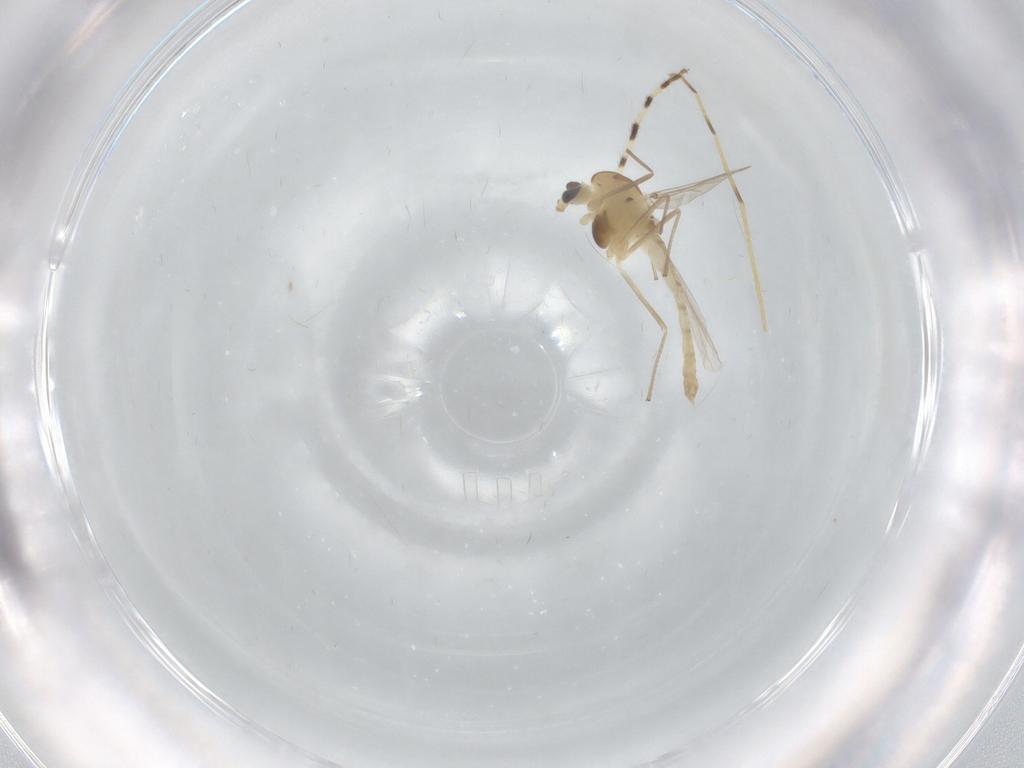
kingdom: Animalia
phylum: Arthropoda
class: Insecta
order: Diptera
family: Chironomidae
